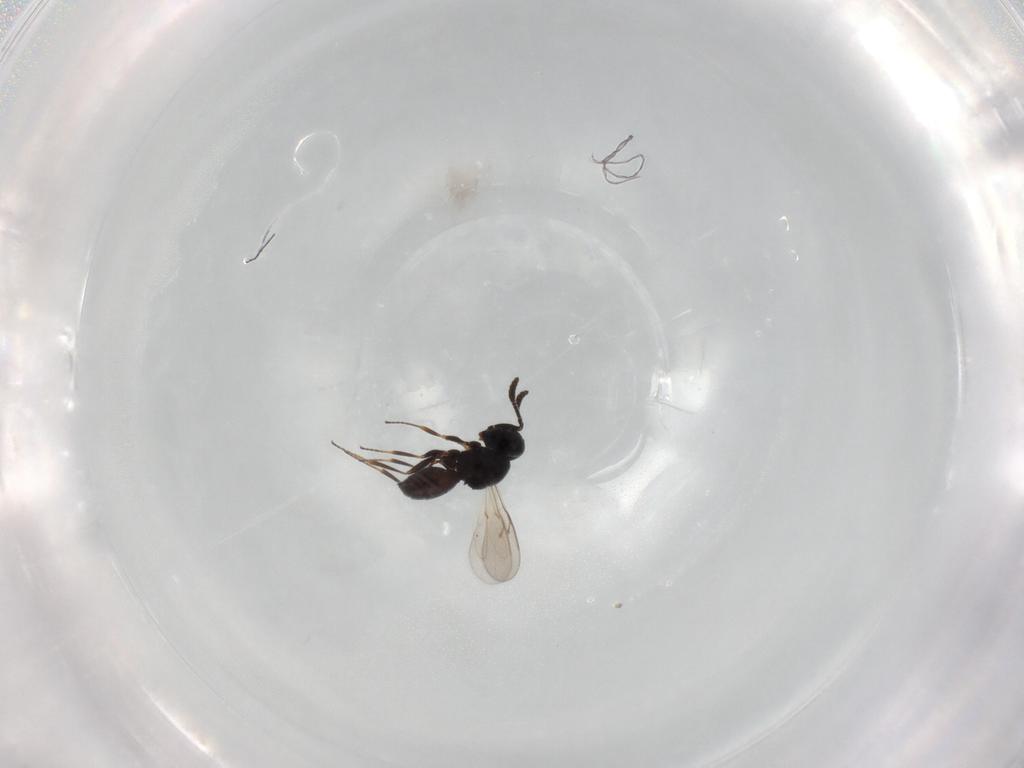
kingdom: Animalia
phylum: Arthropoda
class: Insecta
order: Hymenoptera
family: Scelionidae
